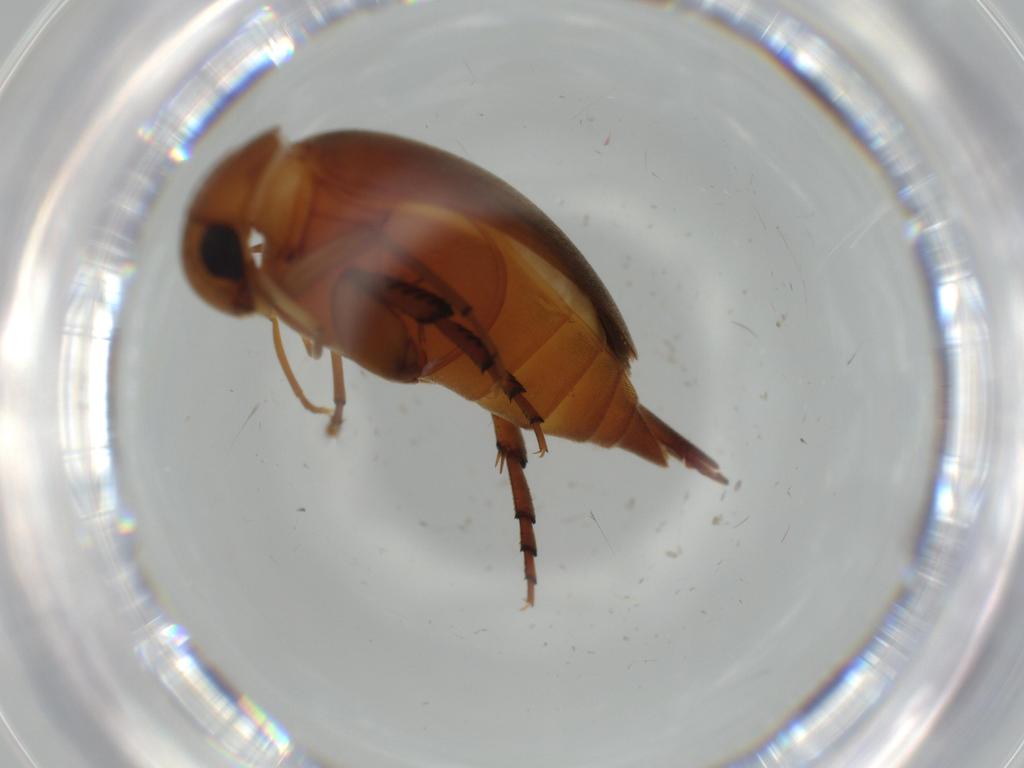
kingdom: Animalia
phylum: Arthropoda
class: Insecta
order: Coleoptera
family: Mordellidae
